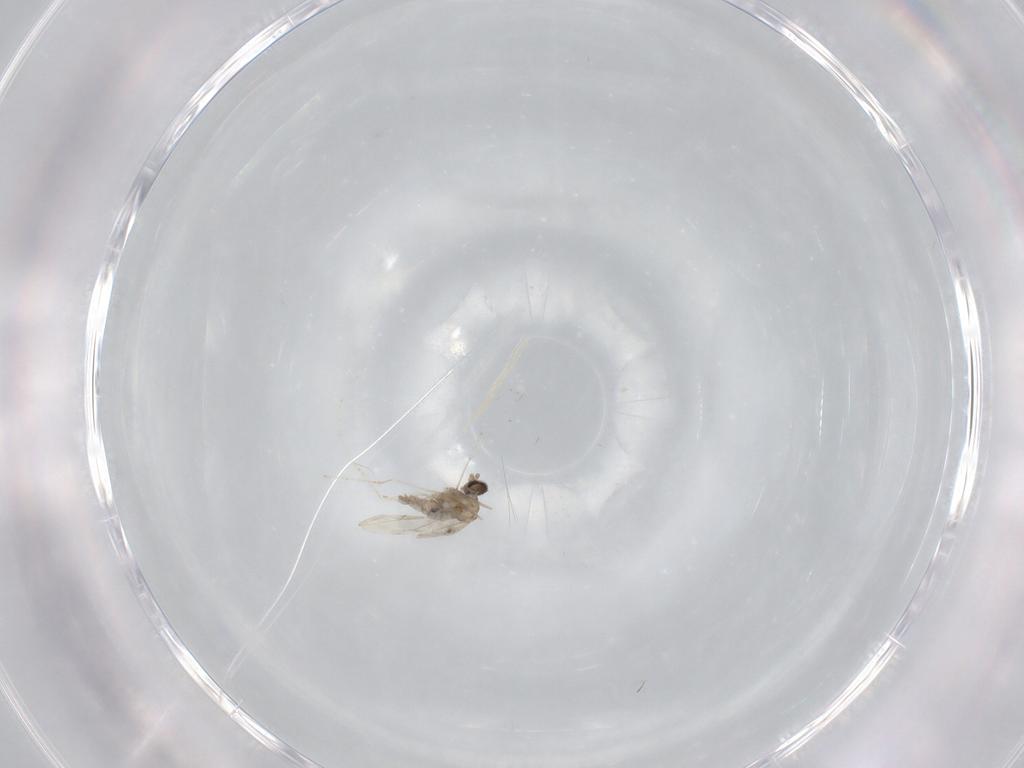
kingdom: Animalia
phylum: Arthropoda
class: Insecta
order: Diptera
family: Cecidomyiidae
